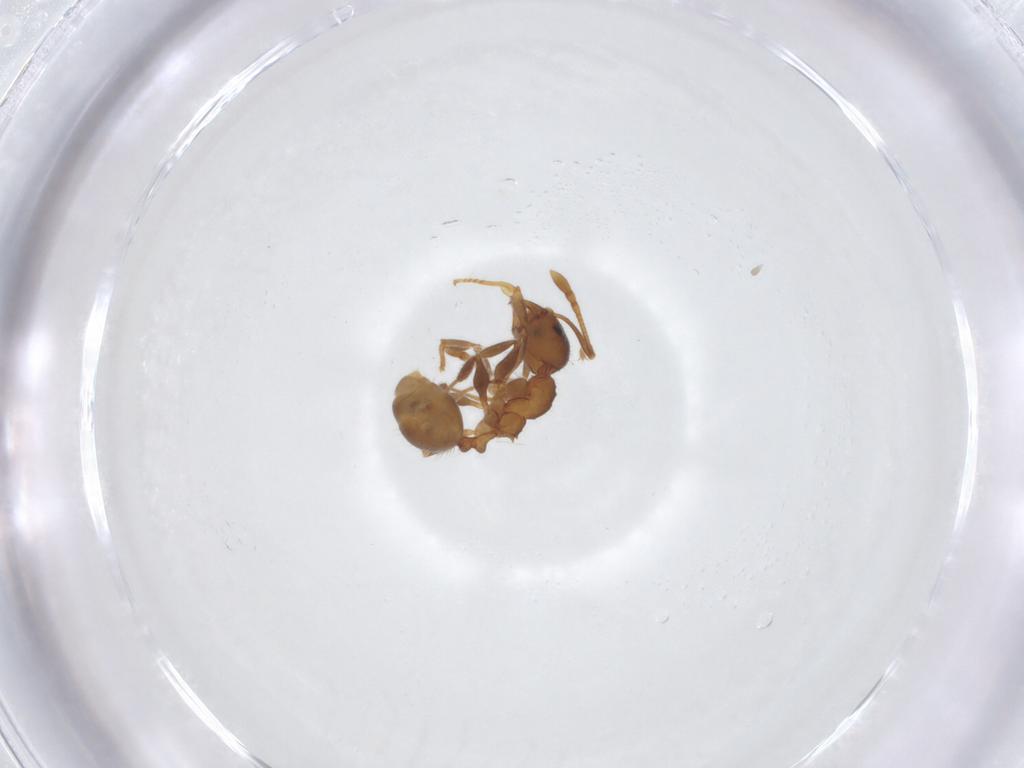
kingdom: Animalia
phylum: Arthropoda
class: Insecta
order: Hymenoptera
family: Formicidae
